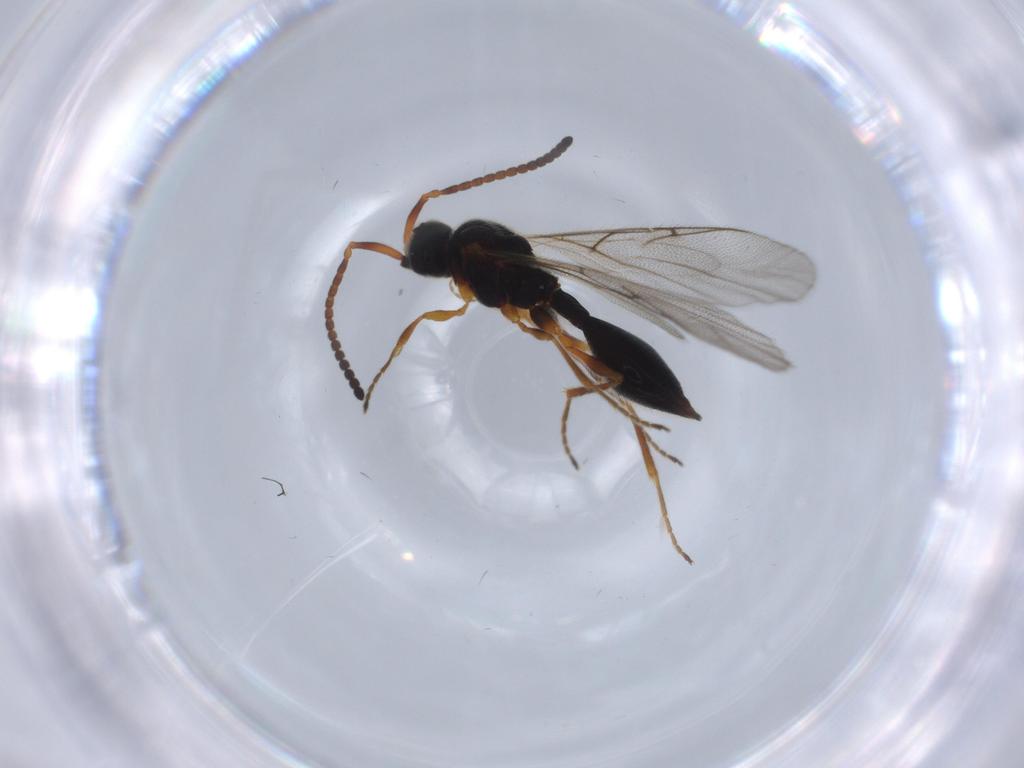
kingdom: Animalia
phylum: Arthropoda
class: Insecta
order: Hymenoptera
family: Diapriidae
